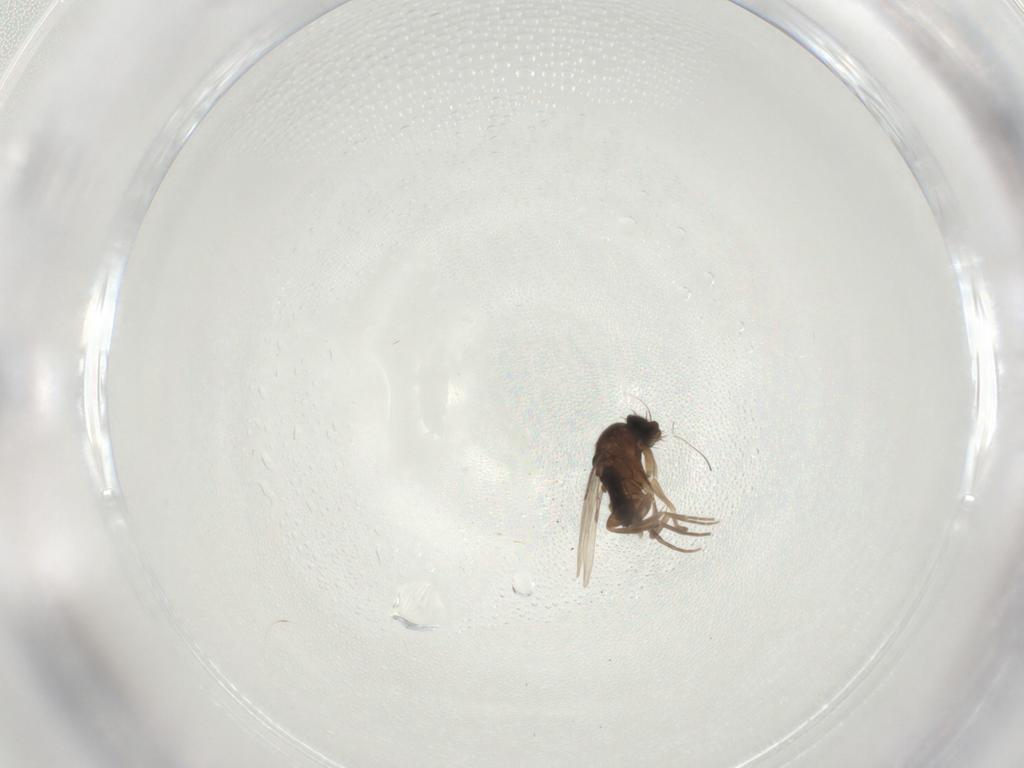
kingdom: Animalia
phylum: Arthropoda
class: Insecta
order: Diptera
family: Phoridae
